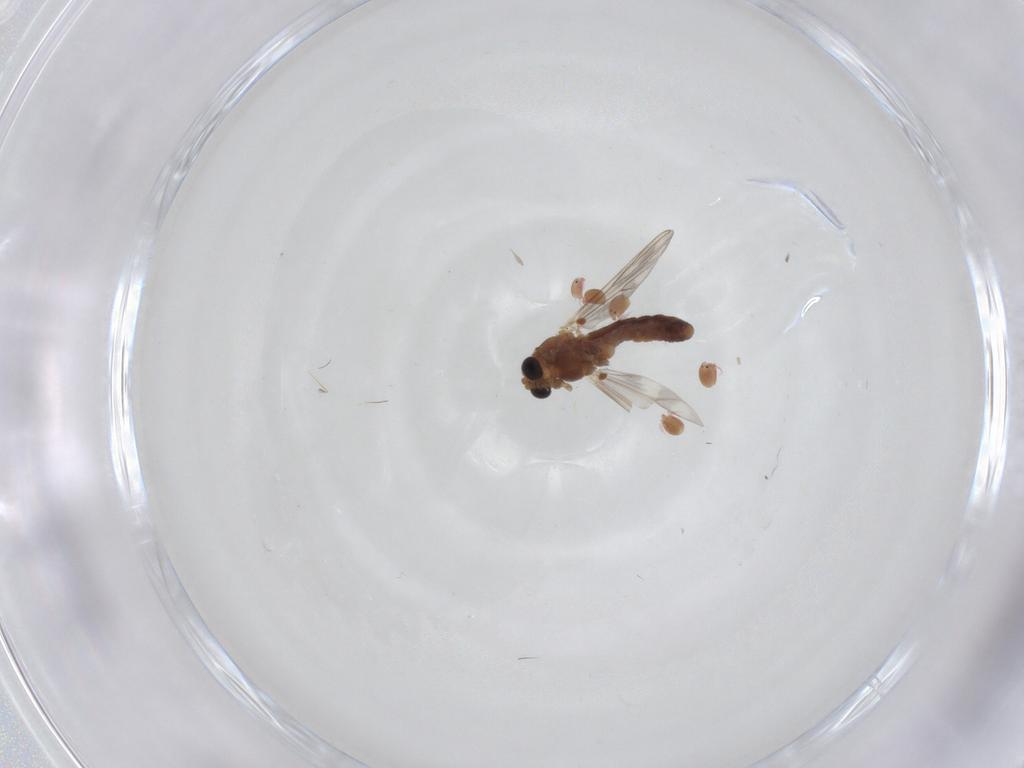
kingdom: Animalia
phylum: Arthropoda
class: Insecta
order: Diptera
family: Chironomidae
